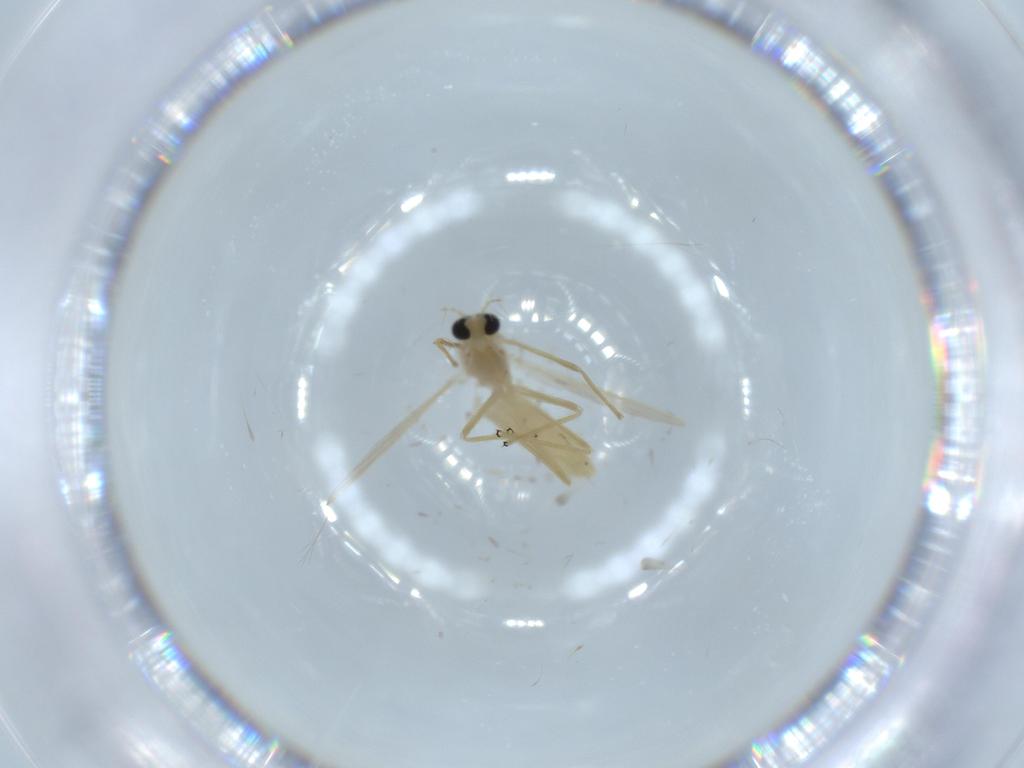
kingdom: Animalia
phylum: Arthropoda
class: Insecta
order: Diptera
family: Chironomidae
